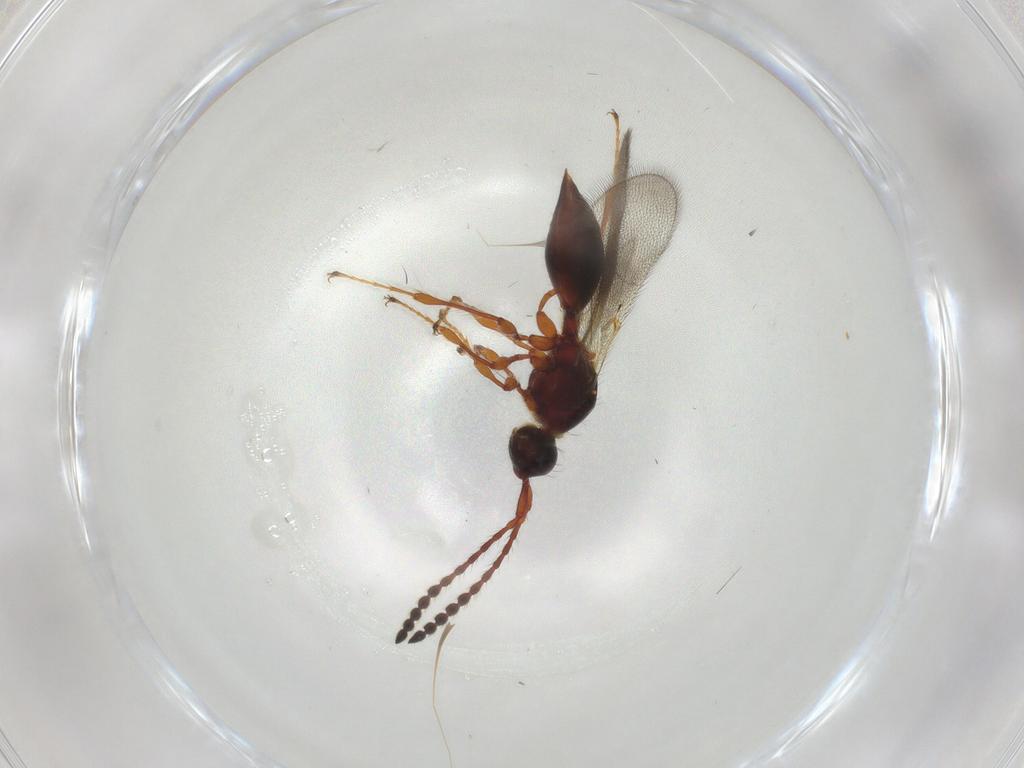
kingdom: Animalia
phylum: Arthropoda
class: Insecta
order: Hymenoptera
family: Diapriidae
